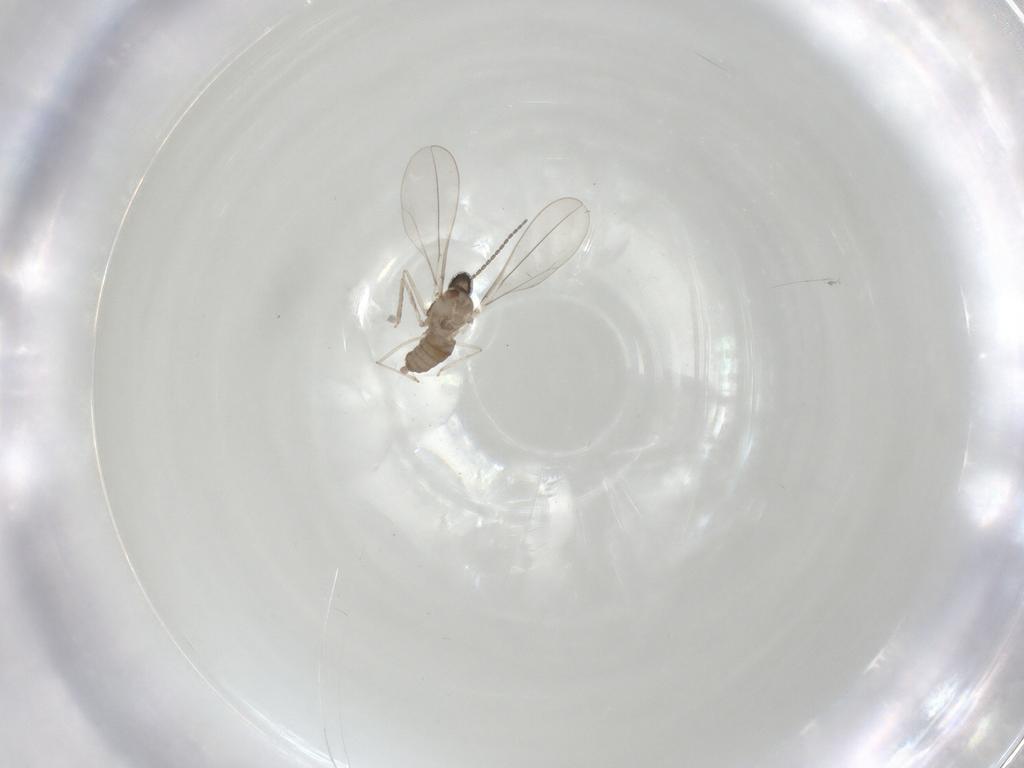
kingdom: Animalia
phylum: Arthropoda
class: Insecta
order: Diptera
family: Cecidomyiidae
